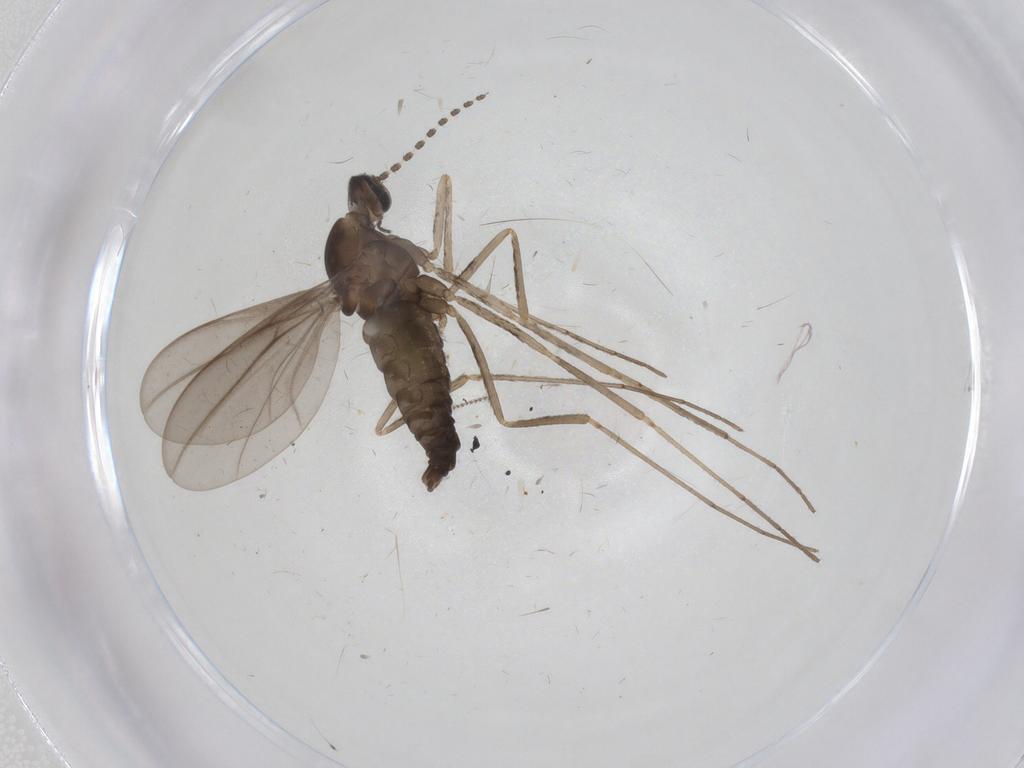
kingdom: Animalia
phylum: Arthropoda
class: Insecta
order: Diptera
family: Cecidomyiidae
